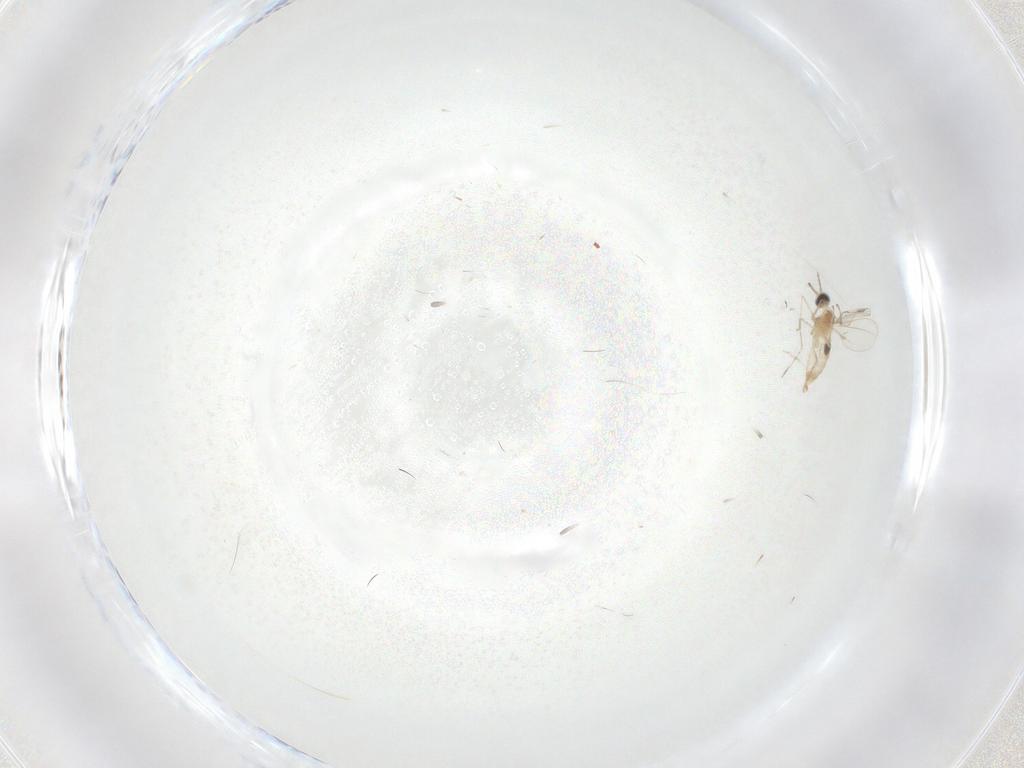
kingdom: Animalia
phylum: Arthropoda
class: Insecta
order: Diptera
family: Cecidomyiidae
